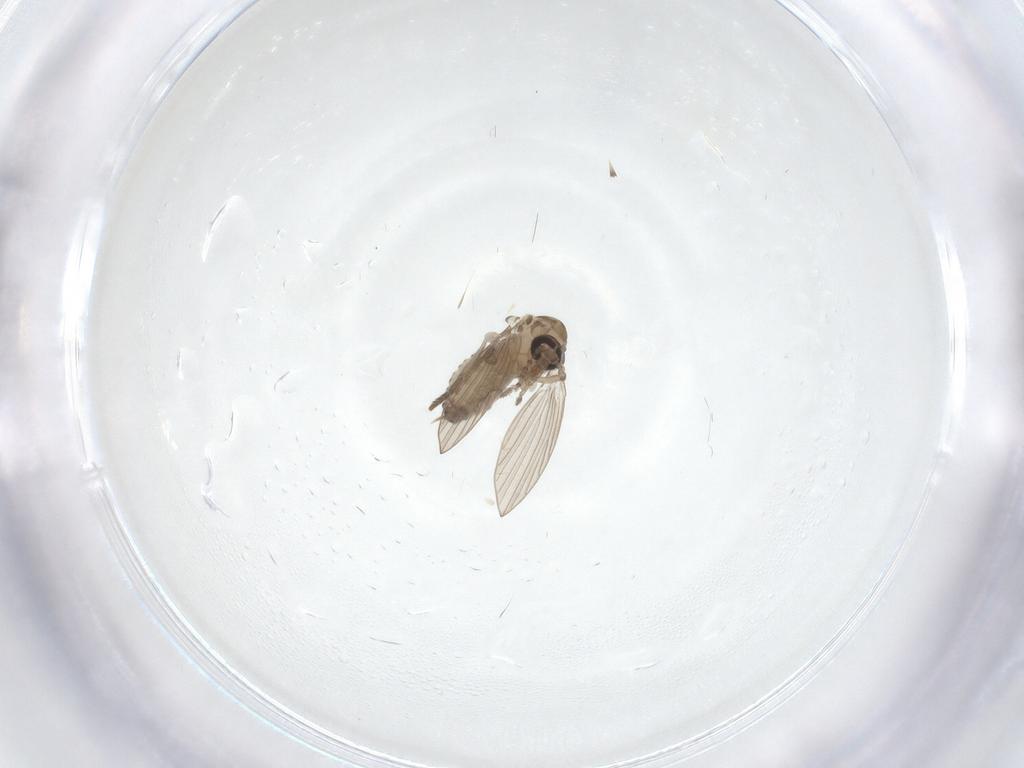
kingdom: Animalia
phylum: Arthropoda
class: Insecta
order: Diptera
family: Psychodidae
